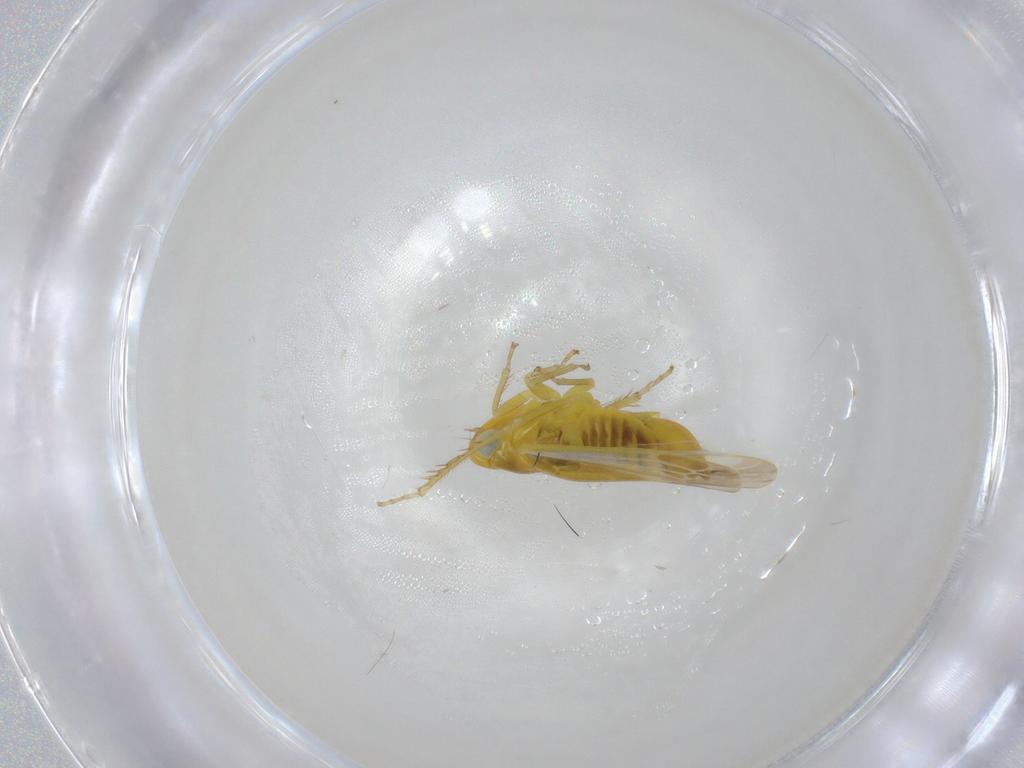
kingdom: Animalia
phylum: Arthropoda
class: Insecta
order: Hemiptera
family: Cicadellidae
